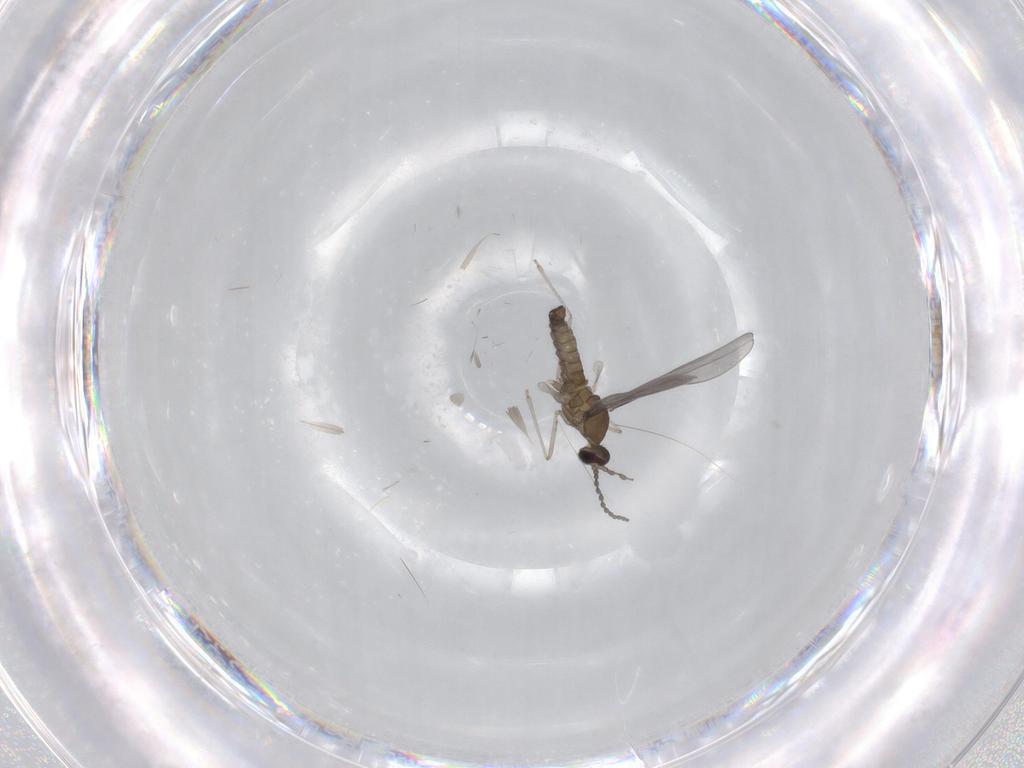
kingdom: Animalia
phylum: Arthropoda
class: Insecta
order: Diptera
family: Cecidomyiidae
